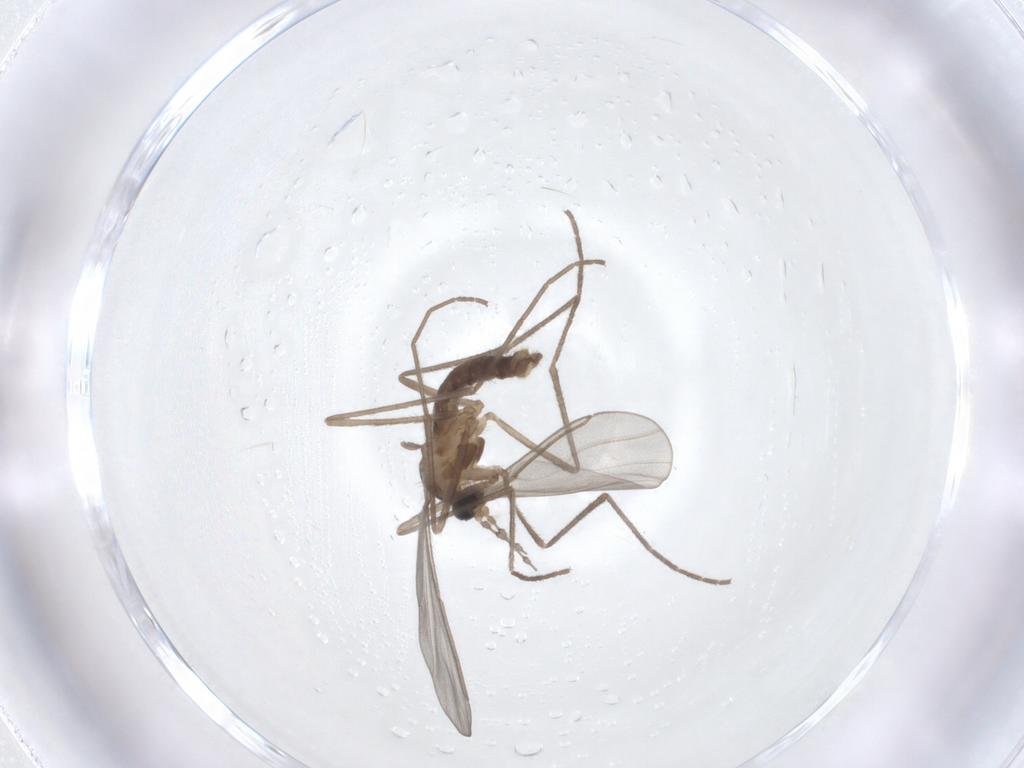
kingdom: Animalia
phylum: Arthropoda
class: Insecta
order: Diptera
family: Cecidomyiidae
